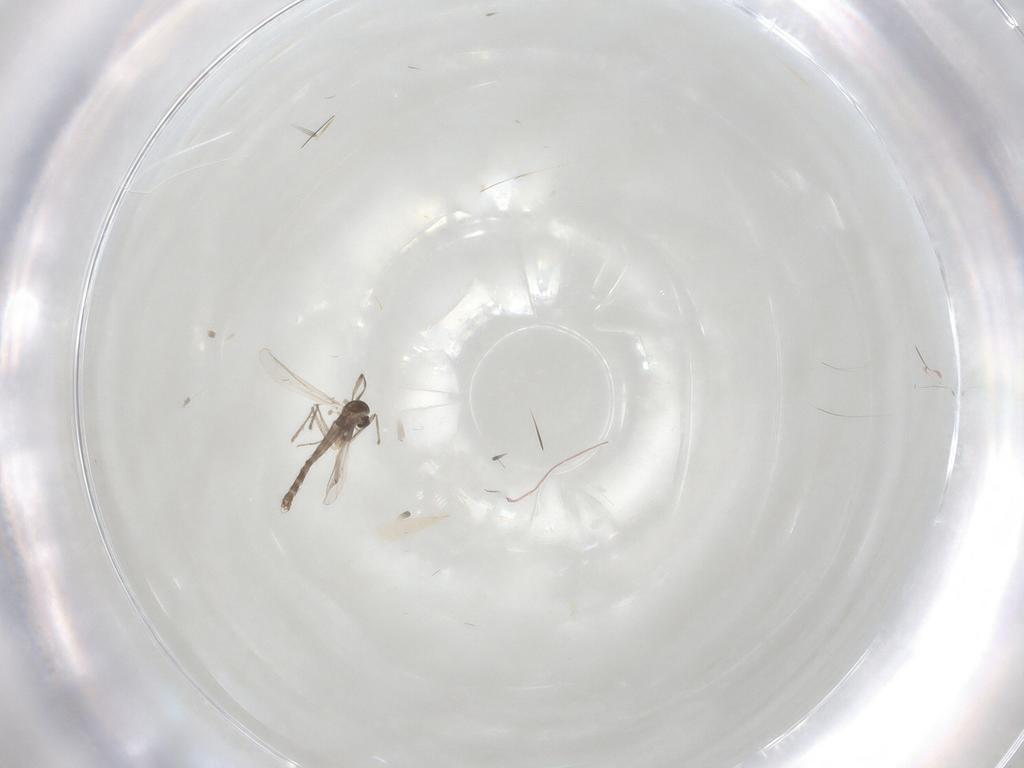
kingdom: Animalia
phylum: Arthropoda
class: Insecta
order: Diptera
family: Chironomidae
